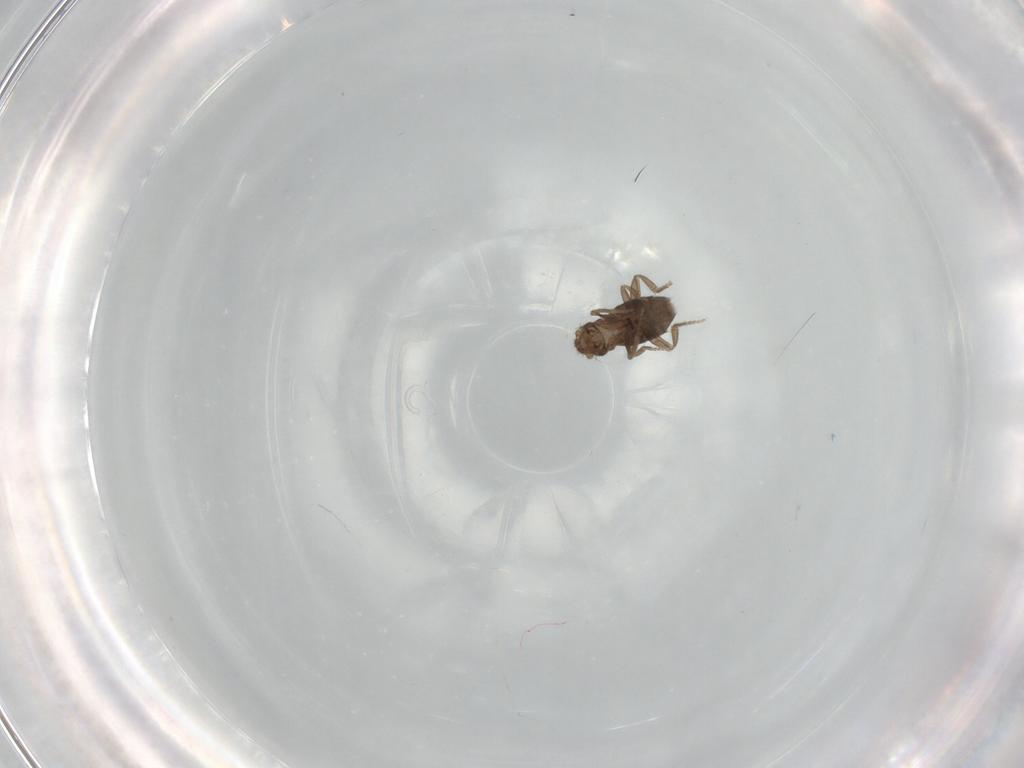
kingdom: Animalia
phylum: Arthropoda
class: Insecta
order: Diptera
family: Phoridae
